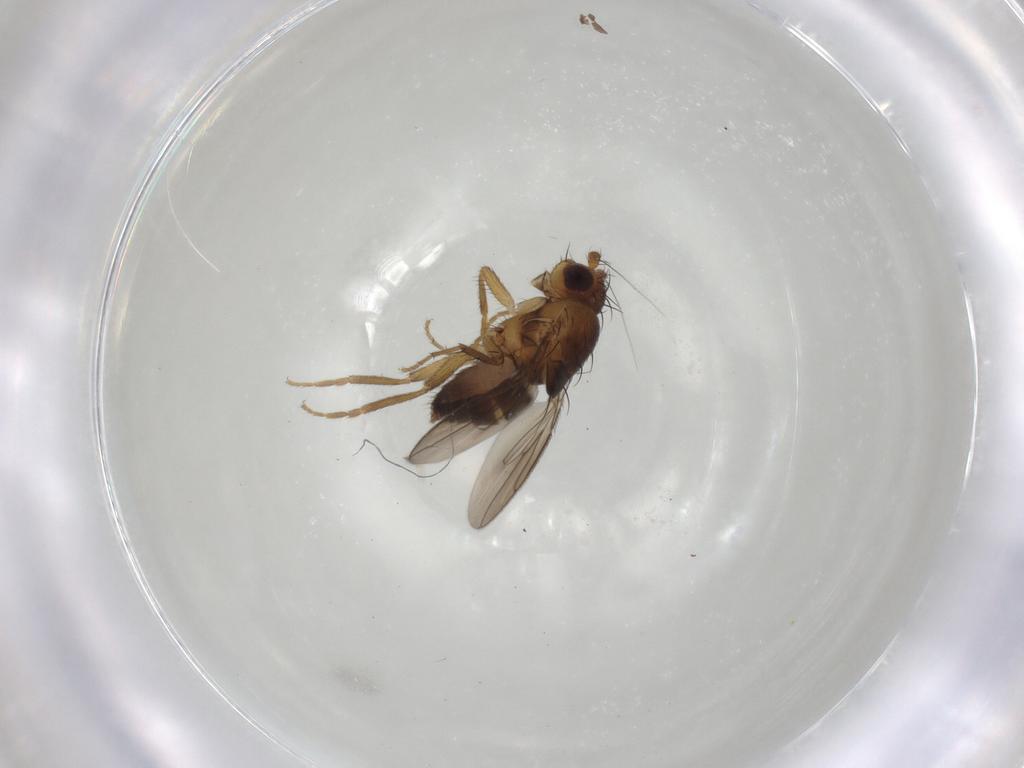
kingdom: Animalia
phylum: Arthropoda
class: Insecta
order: Diptera
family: Sphaeroceridae
